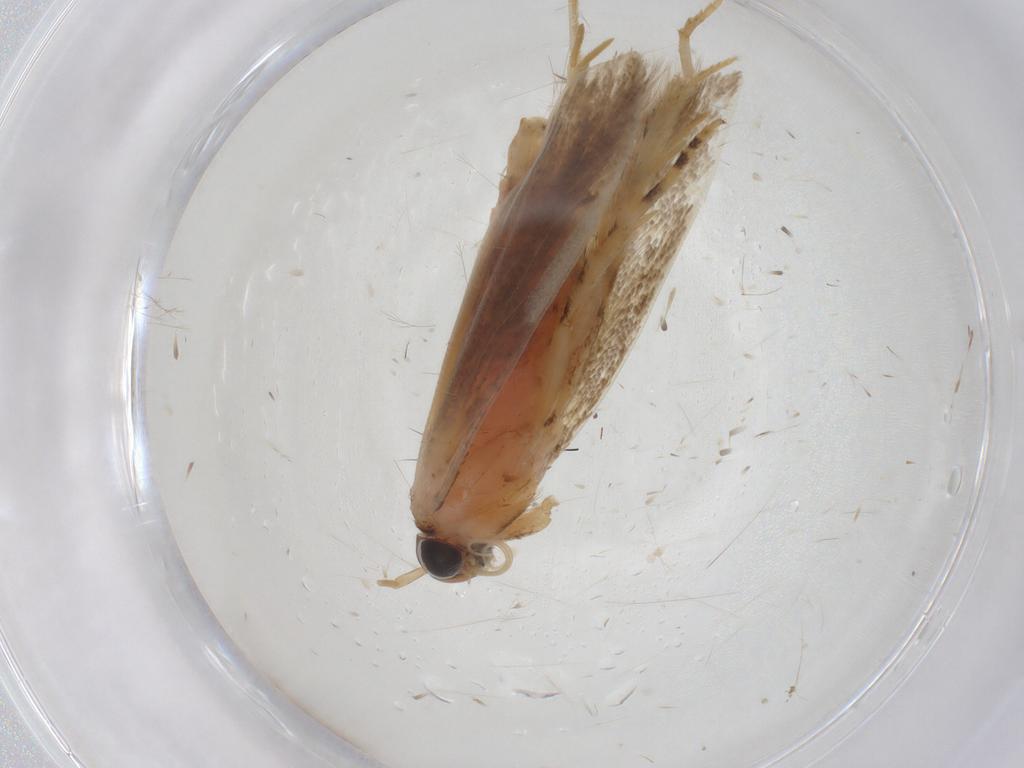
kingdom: Animalia
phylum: Arthropoda
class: Insecta
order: Lepidoptera
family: Gelechiidae
